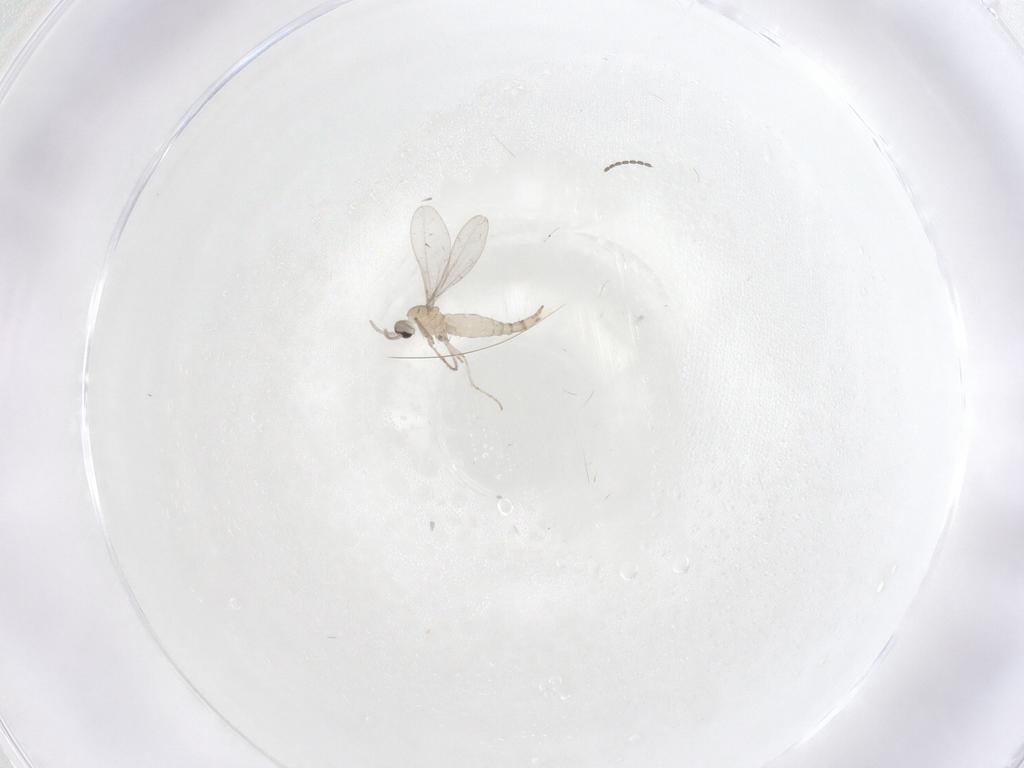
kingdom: Animalia
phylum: Arthropoda
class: Insecta
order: Diptera
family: Cecidomyiidae
